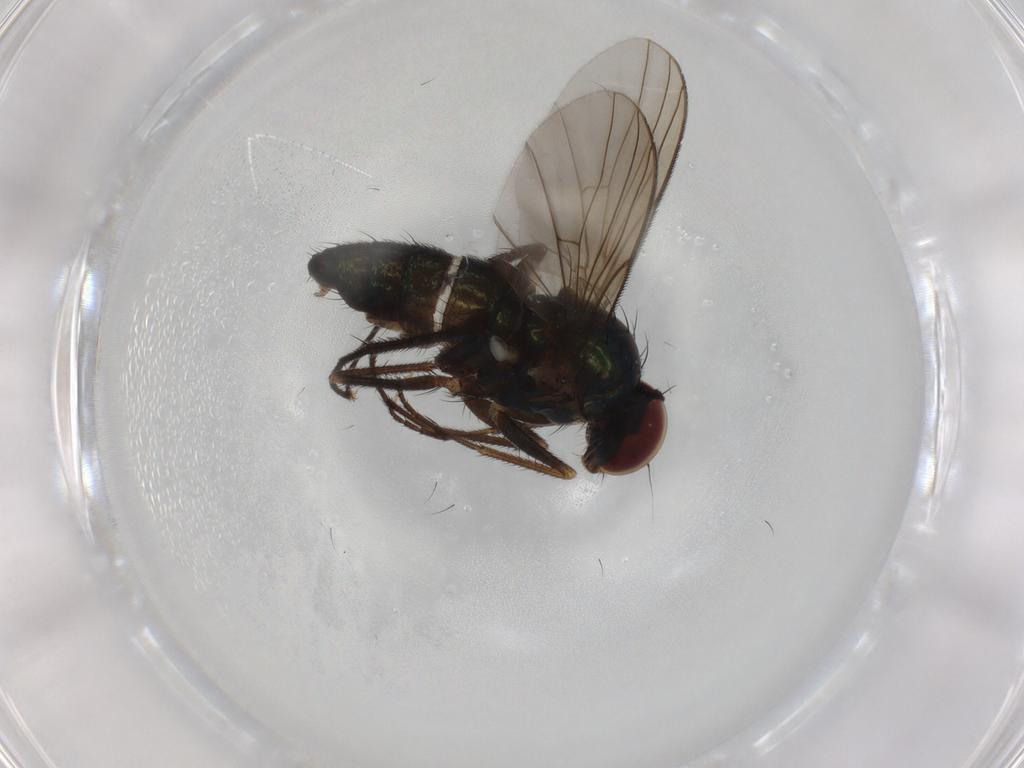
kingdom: Animalia
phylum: Arthropoda
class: Insecta
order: Diptera
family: Dolichopodidae
